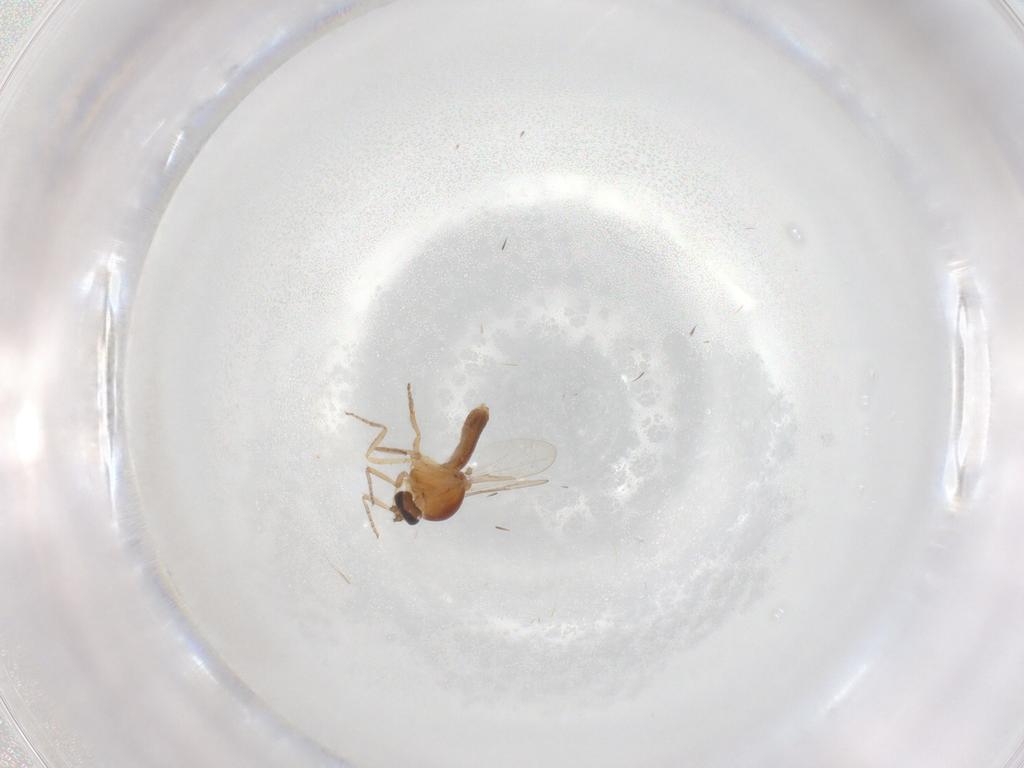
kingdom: Animalia
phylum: Arthropoda
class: Insecta
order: Diptera
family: Ceratopogonidae
